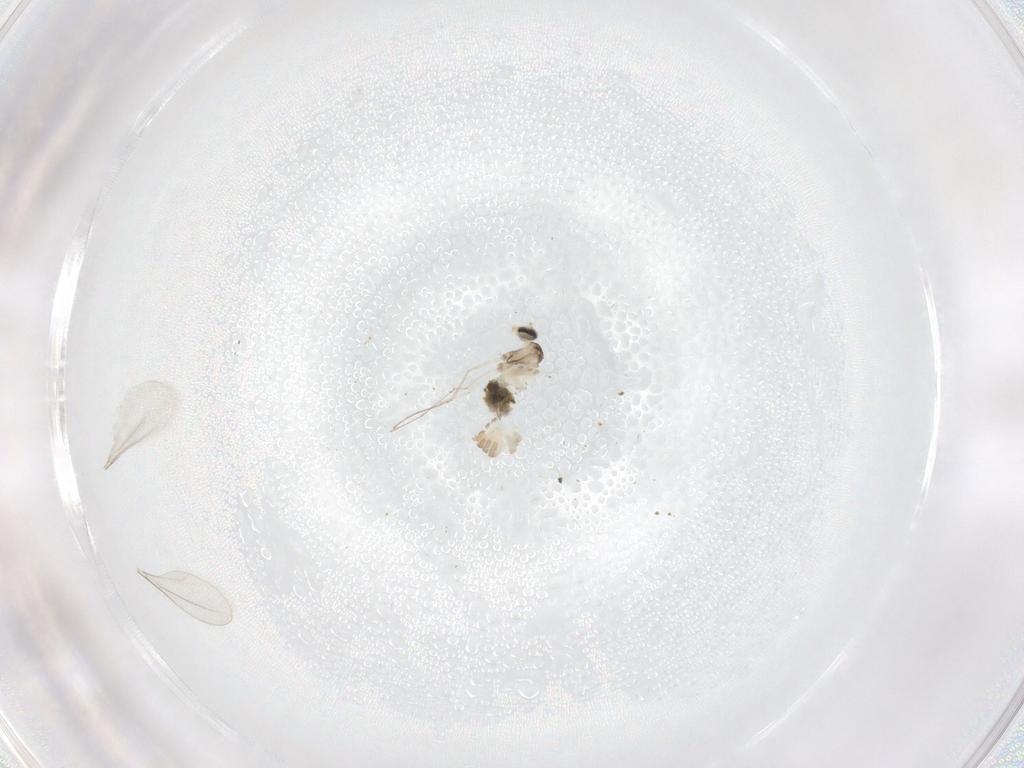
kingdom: Animalia
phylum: Arthropoda
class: Insecta
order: Diptera
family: Cecidomyiidae
